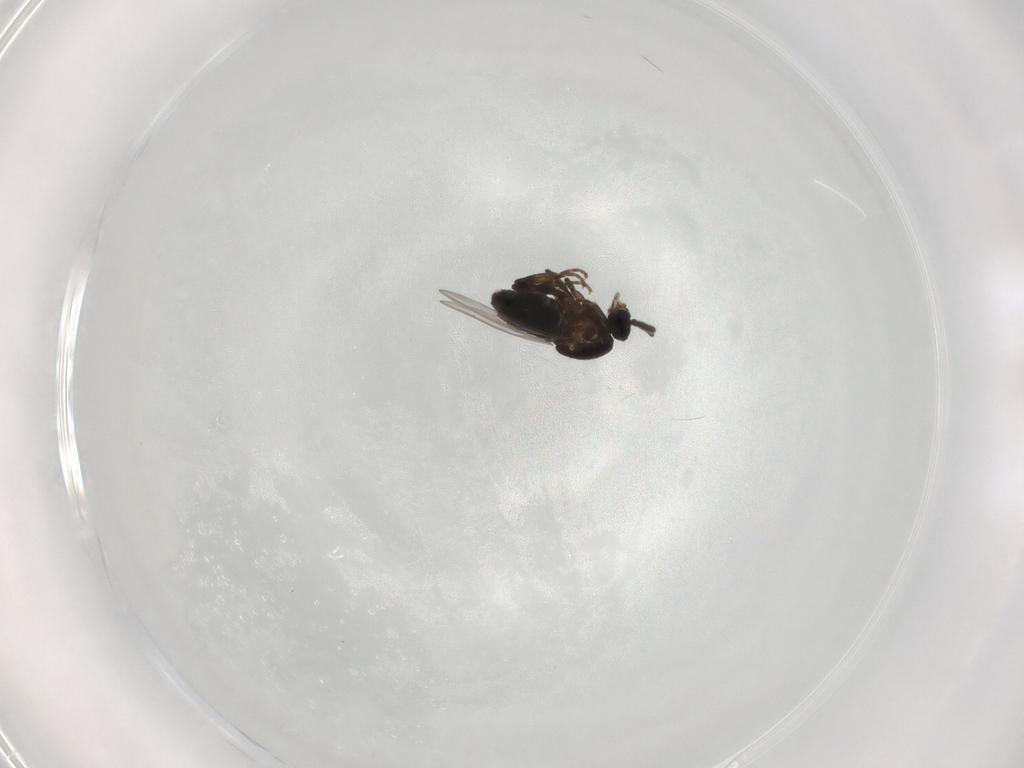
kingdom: Animalia
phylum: Arthropoda
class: Insecta
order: Diptera
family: Calliphoridae
